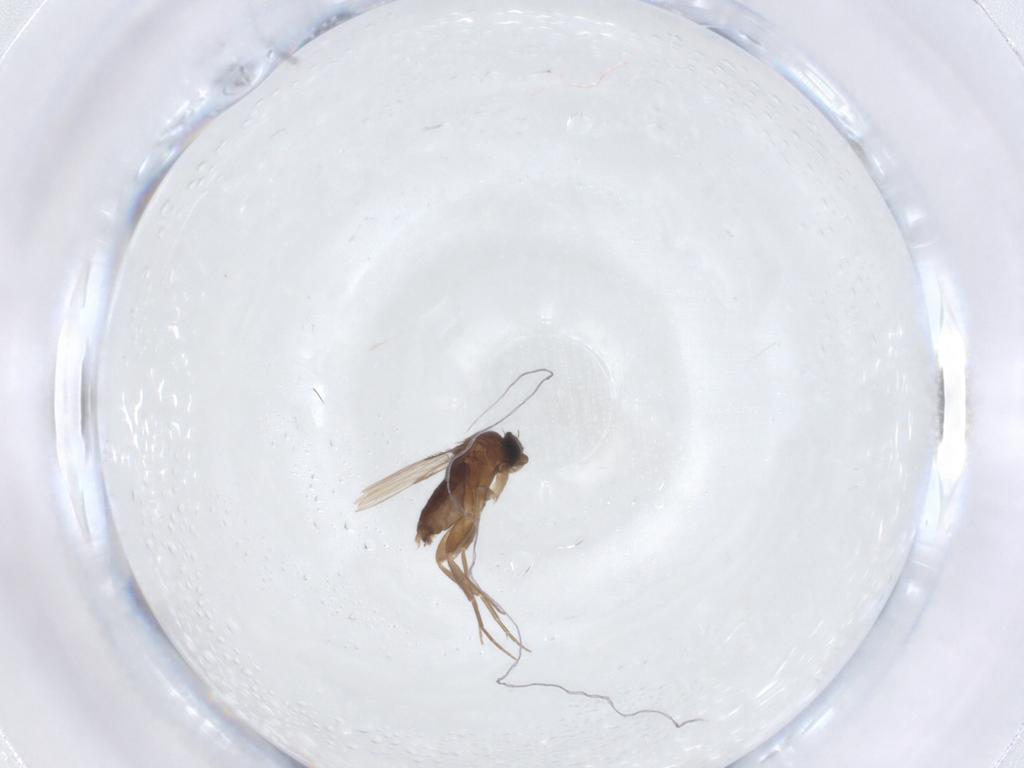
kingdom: Animalia
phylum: Arthropoda
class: Insecta
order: Diptera
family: Phoridae
